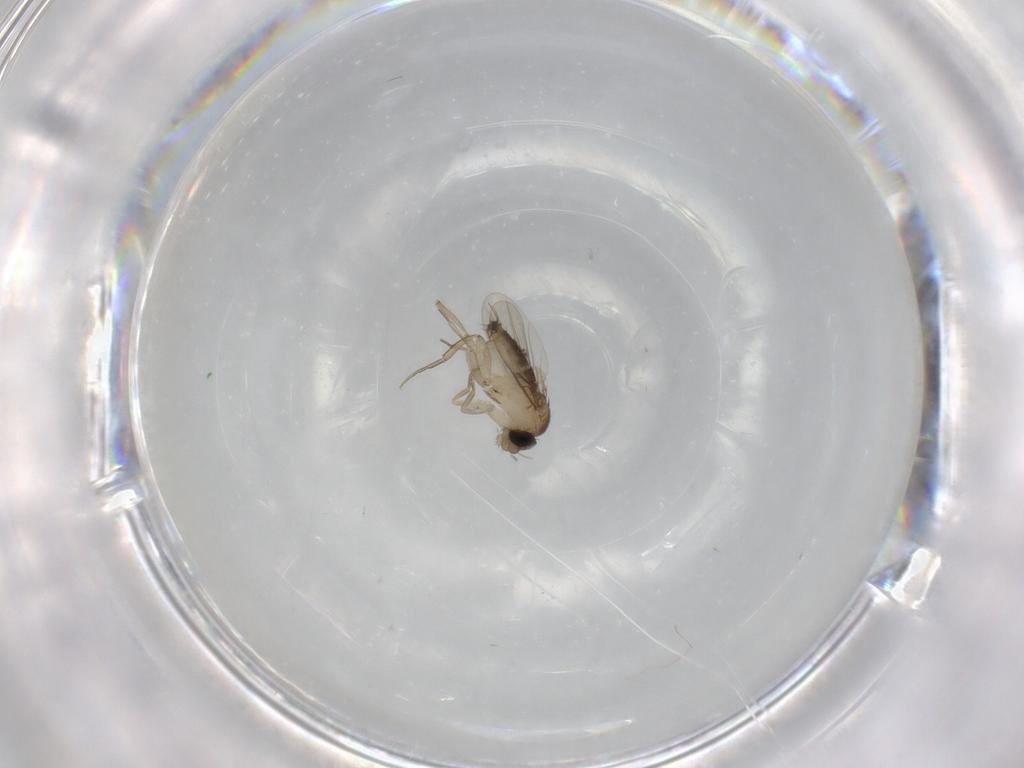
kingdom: Animalia
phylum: Arthropoda
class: Insecta
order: Diptera
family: Phoridae
